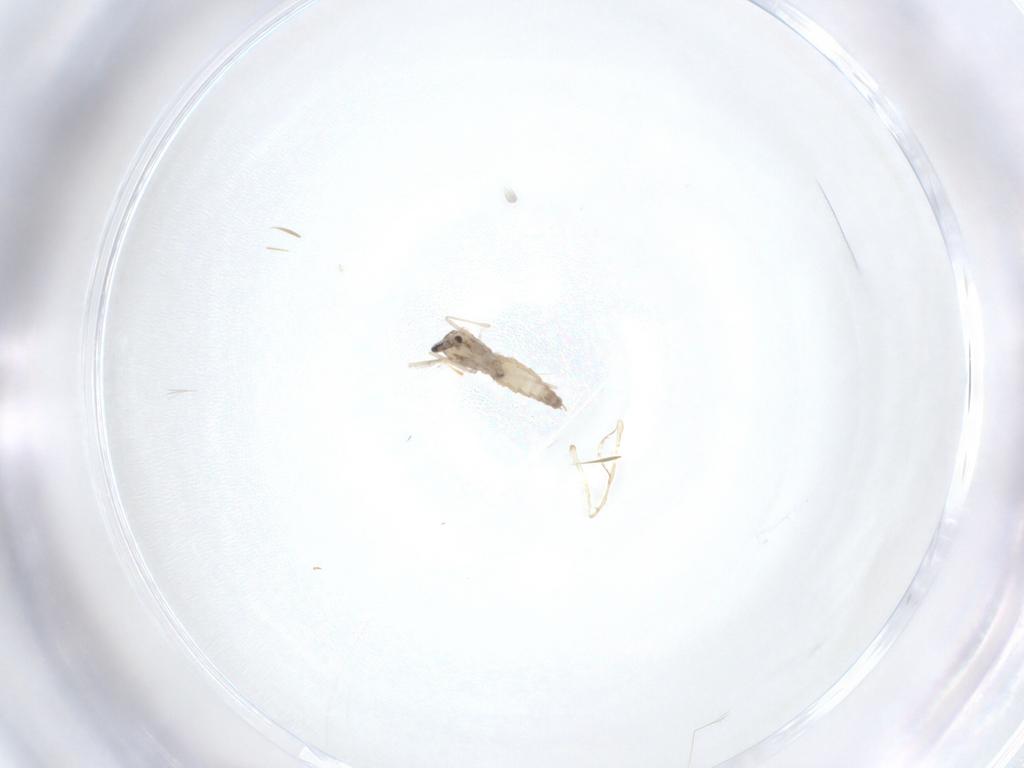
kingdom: Animalia
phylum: Arthropoda
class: Insecta
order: Diptera
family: Cecidomyiidae
